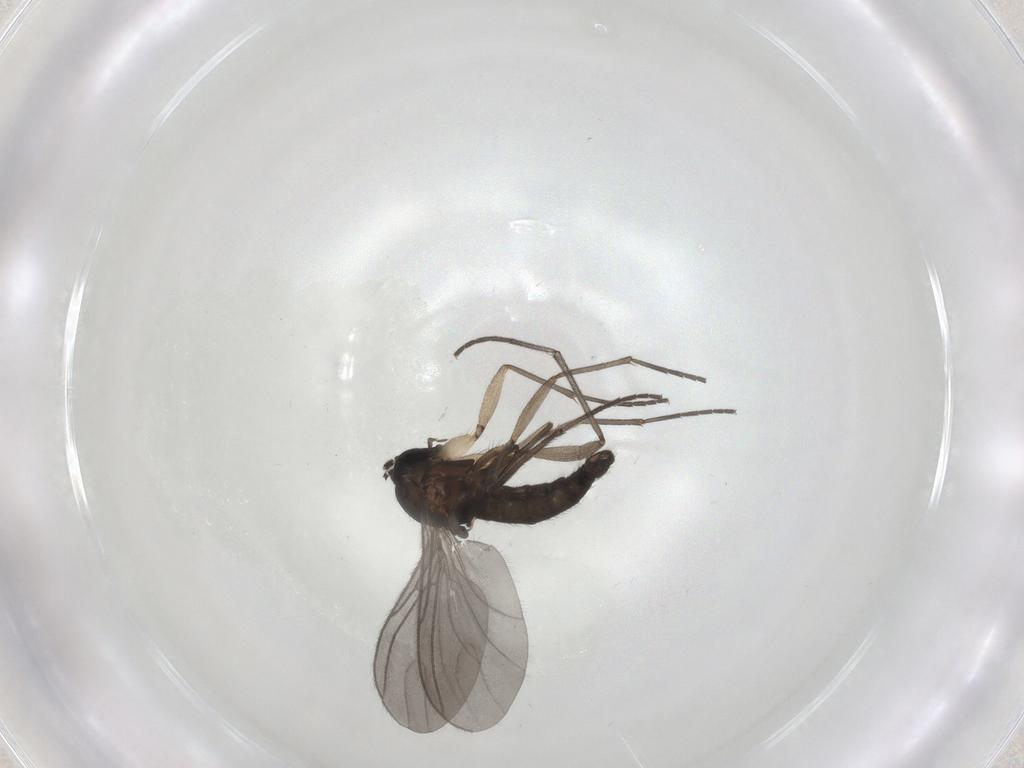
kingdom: Animalia
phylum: Arthropoda
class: Insecta
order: Diptera
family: Sciaridae
